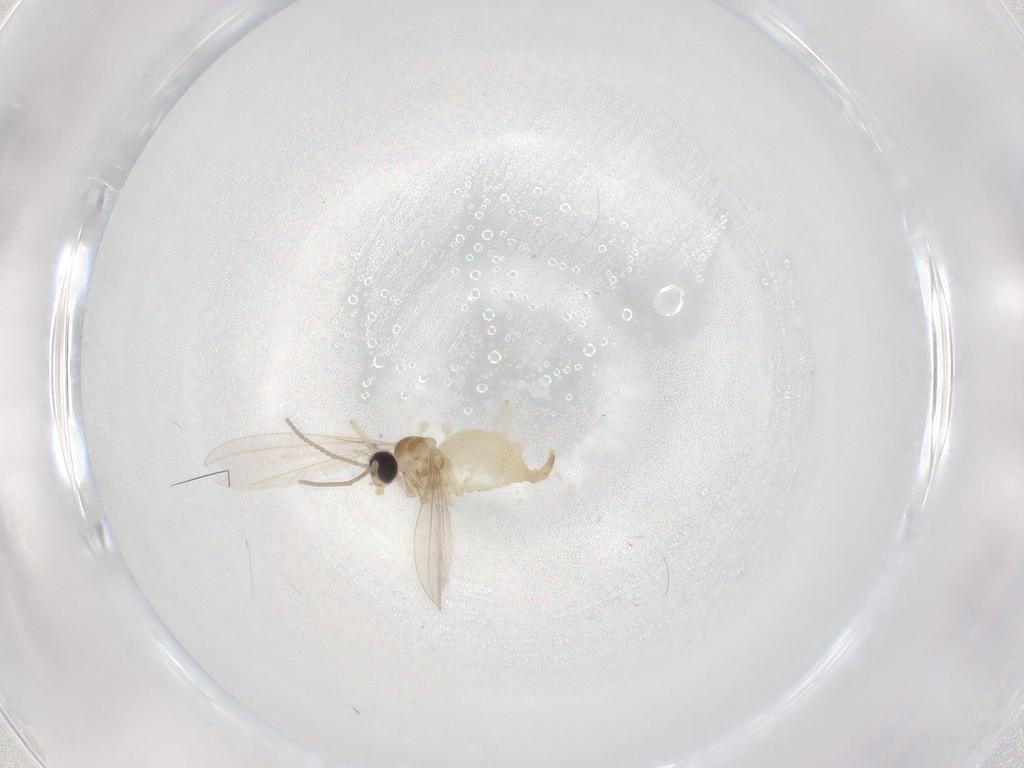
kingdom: Animalia
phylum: Arthropoda
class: Insecta
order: Diptera
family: Cecidomyiidae
